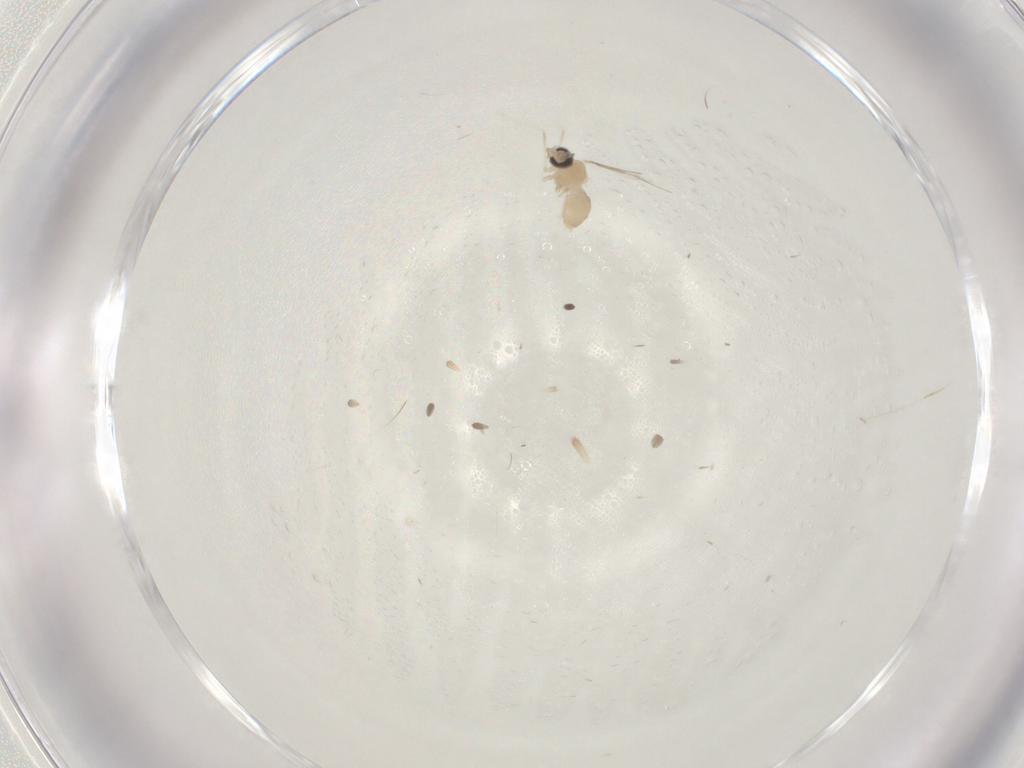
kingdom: Animalia
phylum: Arthropoda
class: Insecta
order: Diptera
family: Cecidomyiidae
